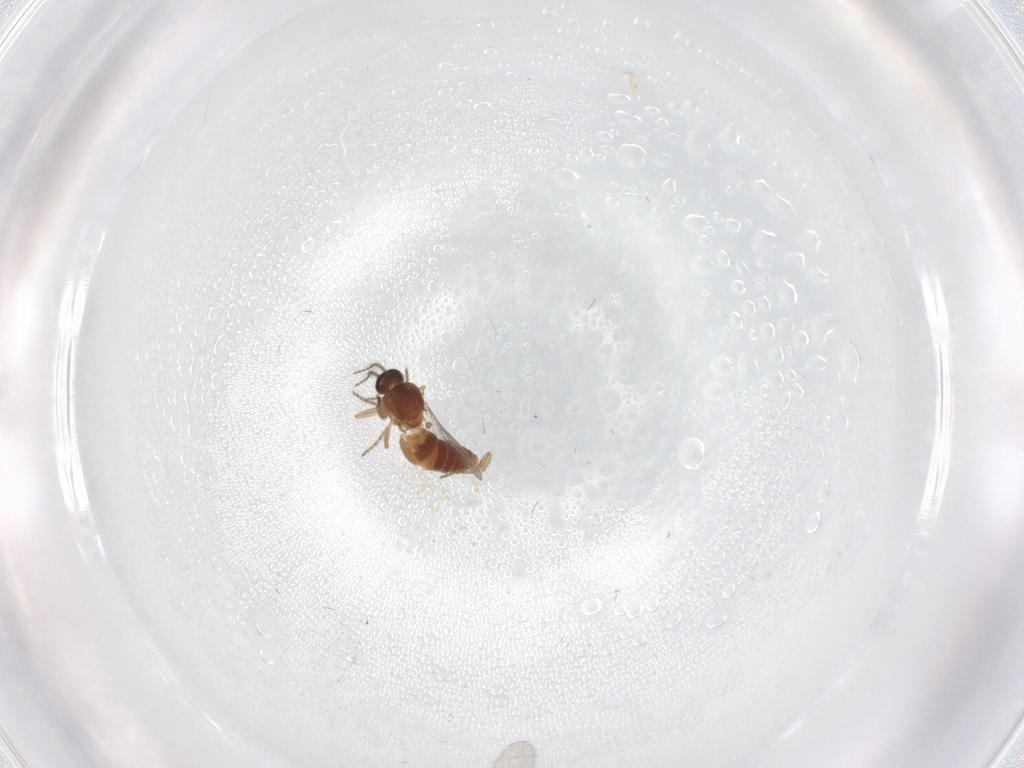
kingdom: Animalia
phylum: Arthropoda
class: Insecta
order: Diptera
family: Ceratopogonidae
